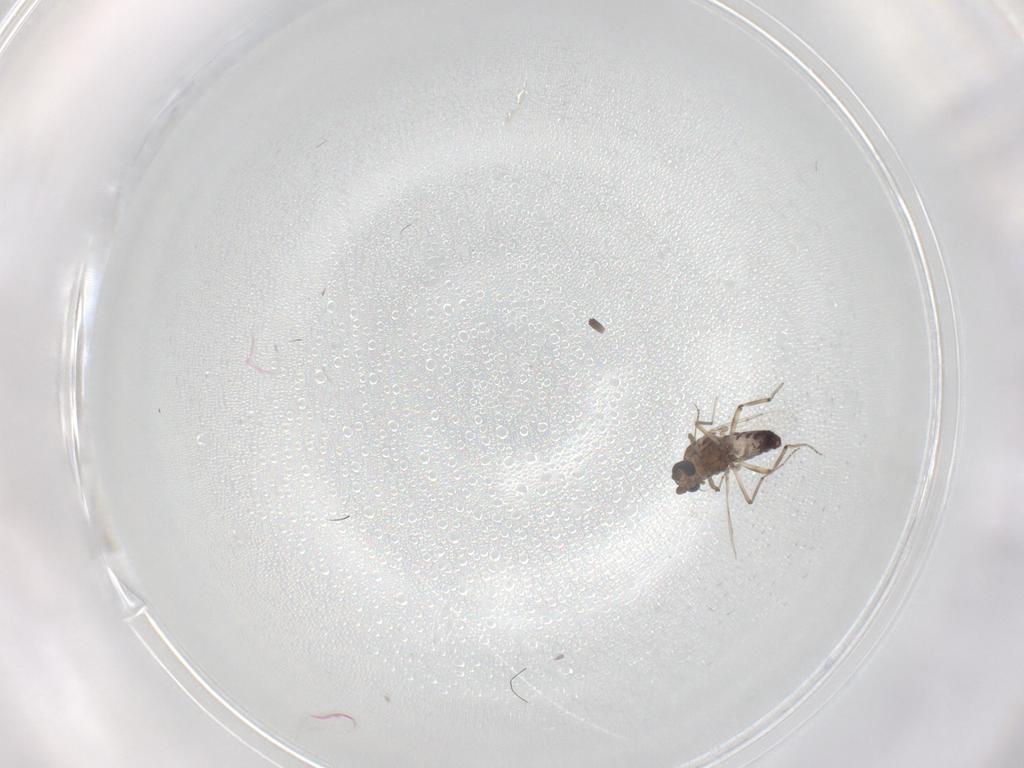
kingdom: Animalia
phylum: Arthropoda
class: Insecta
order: Diptera
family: Ceratopogonidae
